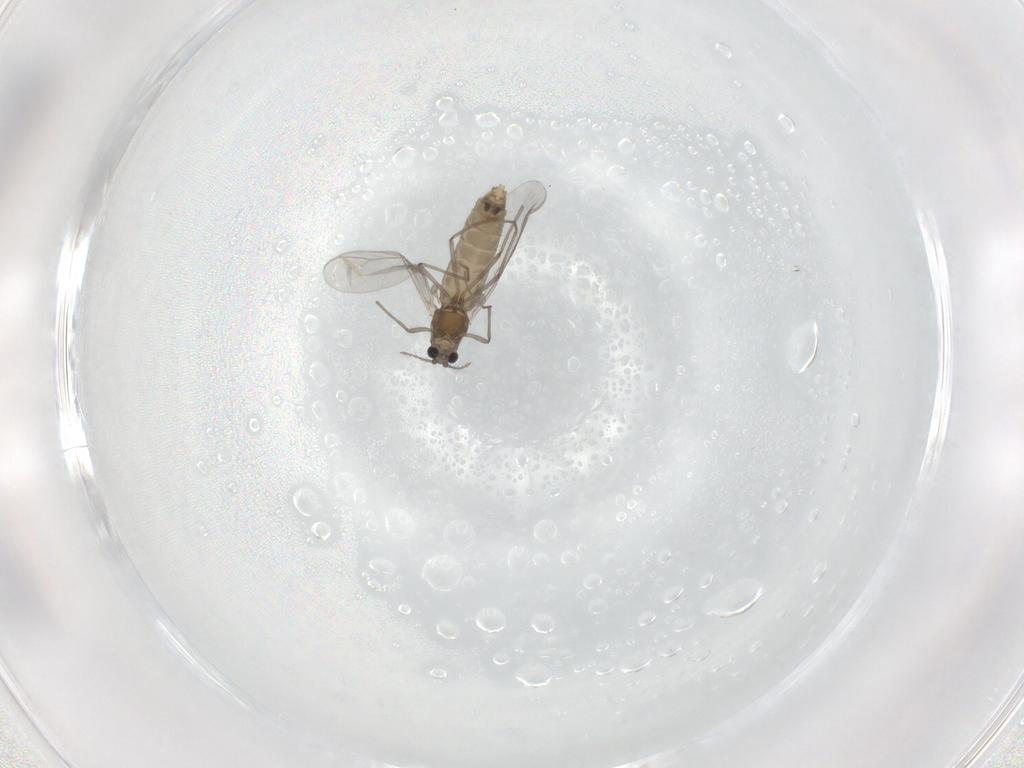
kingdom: Animalia
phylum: Arthropoda
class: Insecta
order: Diptera
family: Chironomidae
